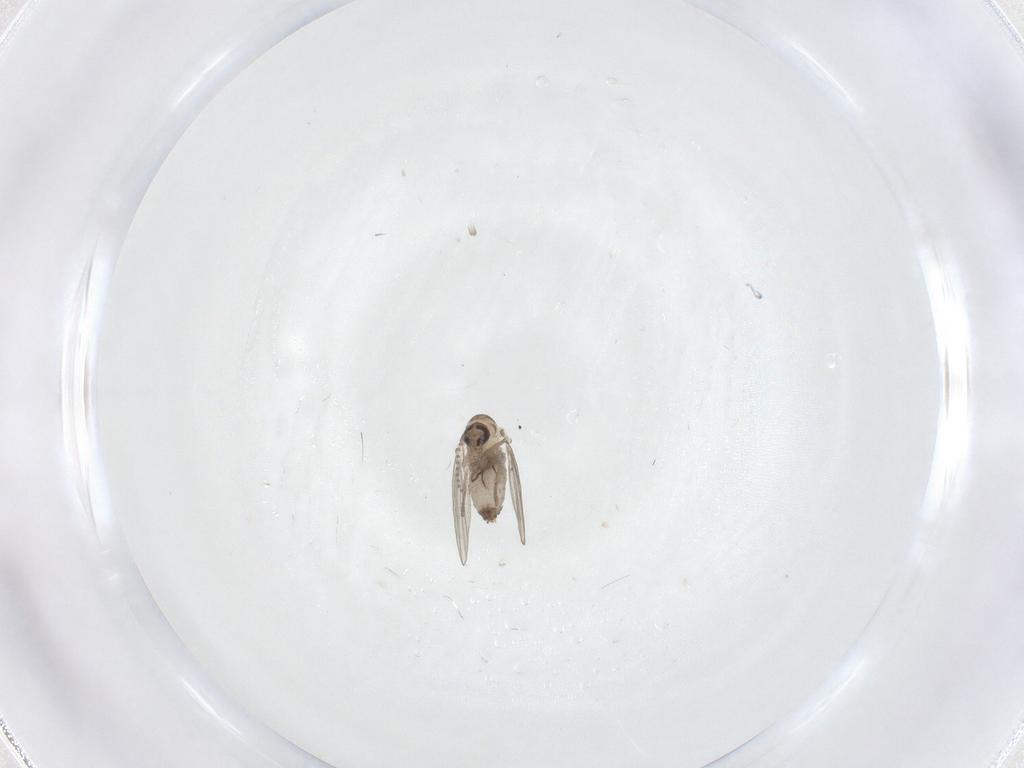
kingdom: Animalia
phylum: Arthropoda
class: Insecta
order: Diptera
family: Psychodidae
